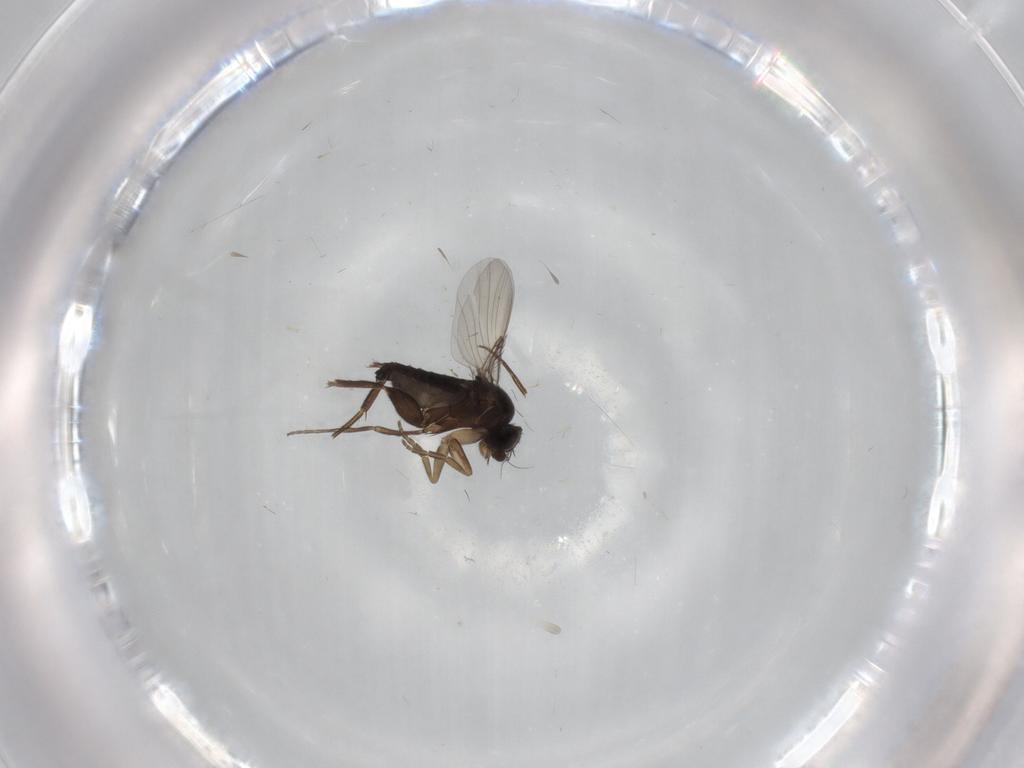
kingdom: Animalia
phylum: Arthropoda
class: Insecta
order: Diptera
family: Phoridae
